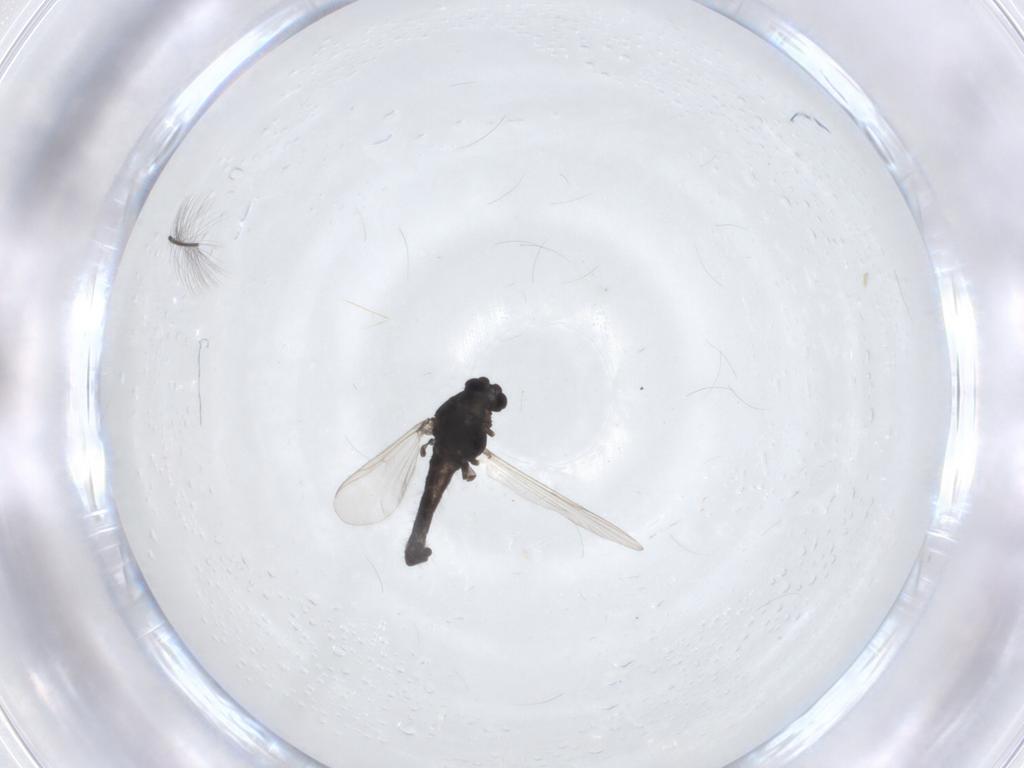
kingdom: Animalia
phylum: Arthropoda
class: Insecta
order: Diptera
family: Chironomidae
